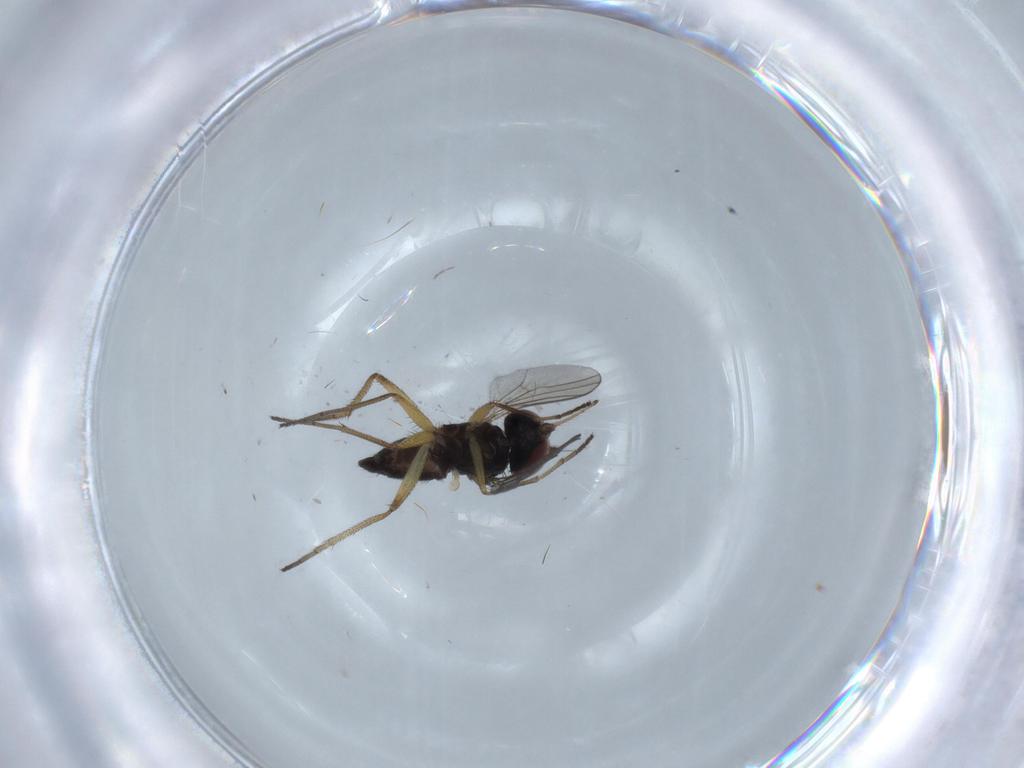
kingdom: Animalia
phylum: Arthropoda
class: Insecta
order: Diptera
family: Dolichopodidae
